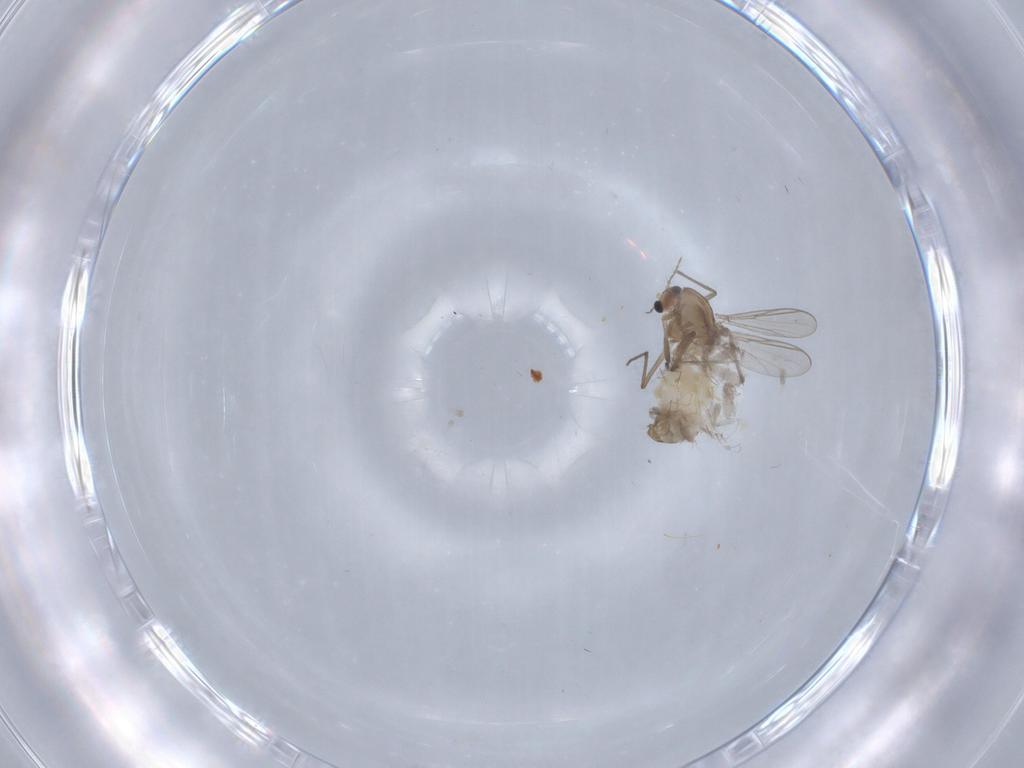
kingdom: Animalia
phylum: Arthropoda
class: Insecta
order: Diptera
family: Chironomidae
